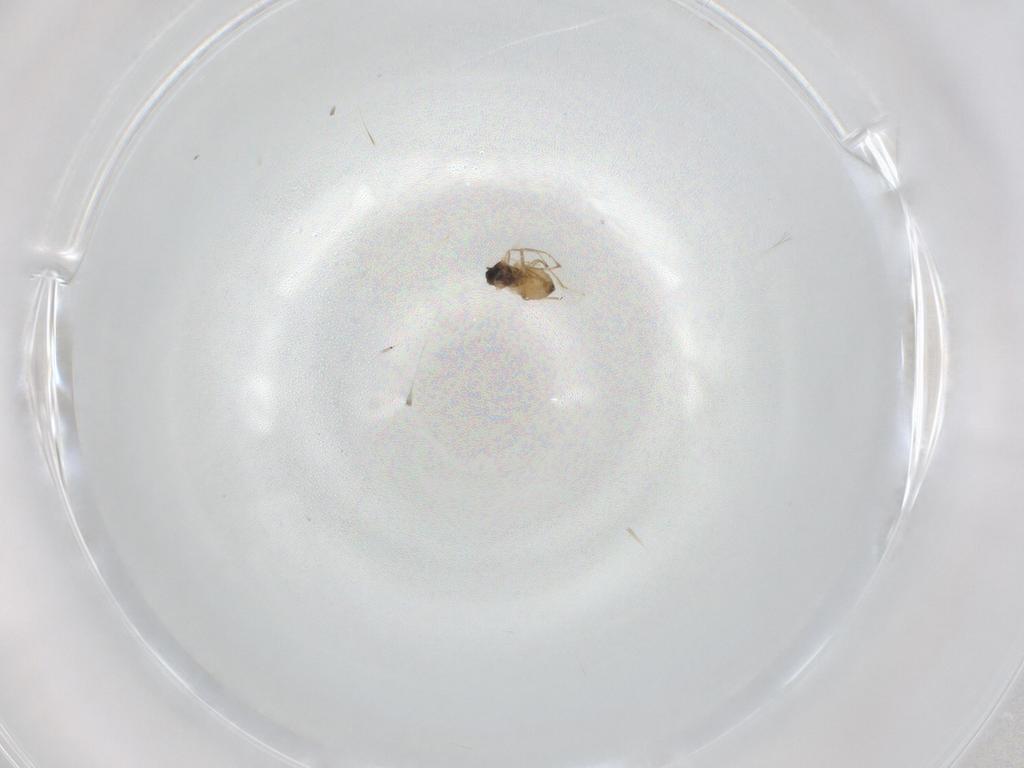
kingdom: Animalia
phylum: Arthropoda
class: Insecta
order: Diptera
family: Cecidomyiidae
